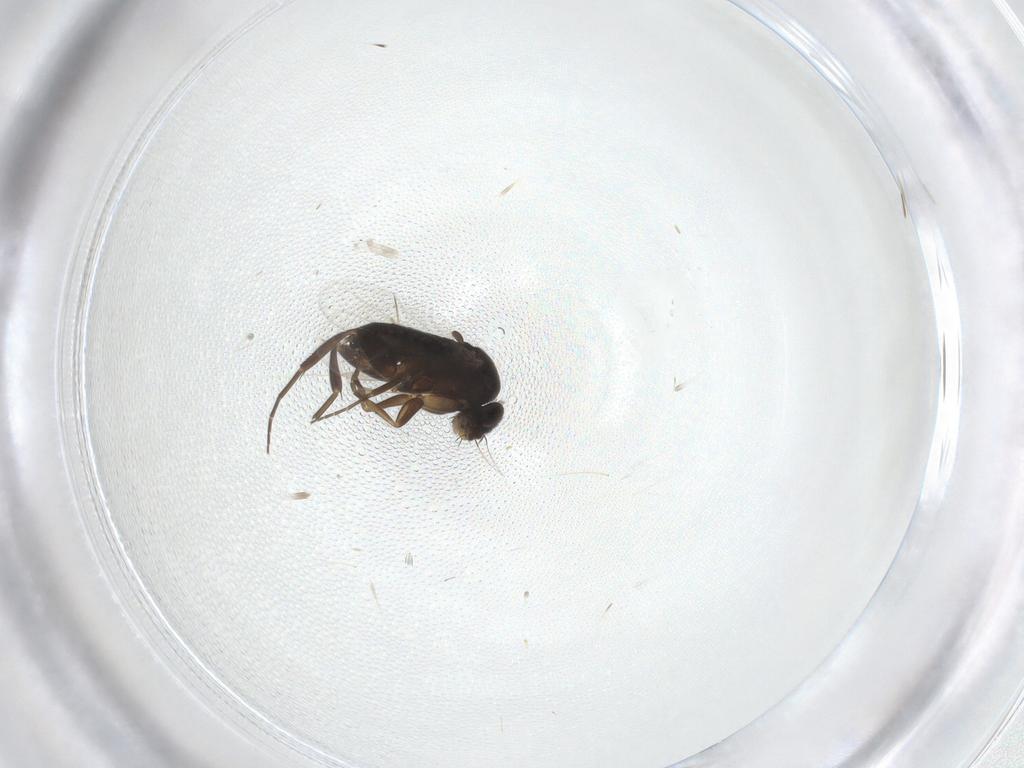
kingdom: Animalia
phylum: Arthropoda
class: Insecta
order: Diptera
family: Phoridae
